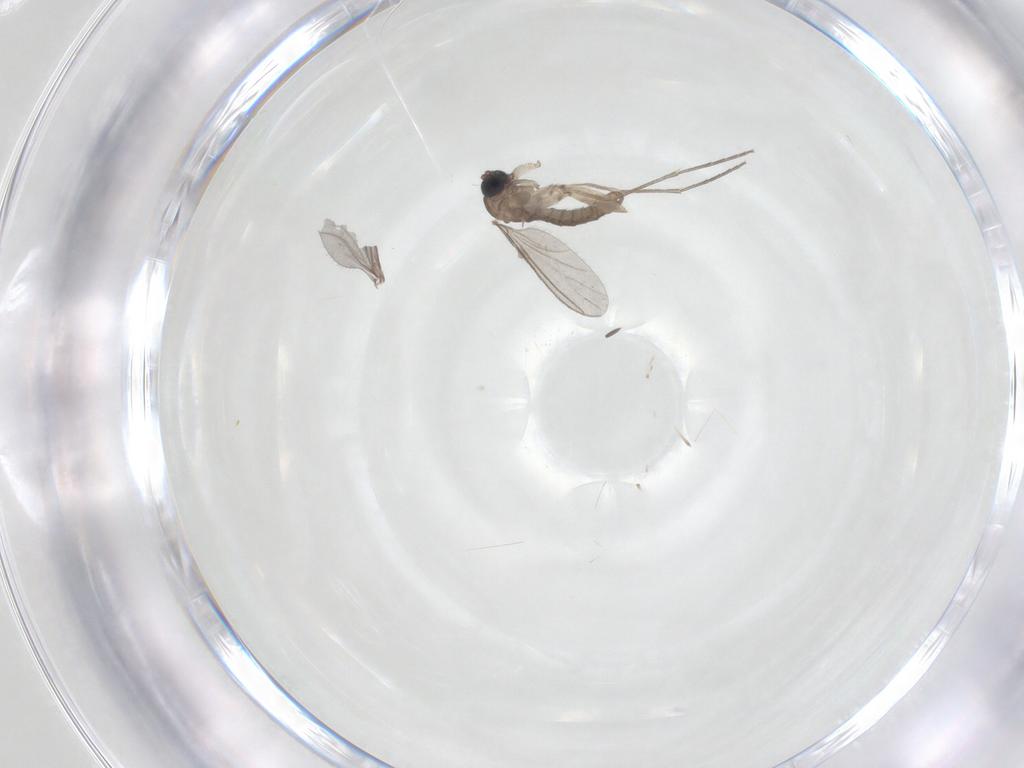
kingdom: Animalia
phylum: Arthropoda
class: Insecta
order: Diptera
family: Sciaridae
